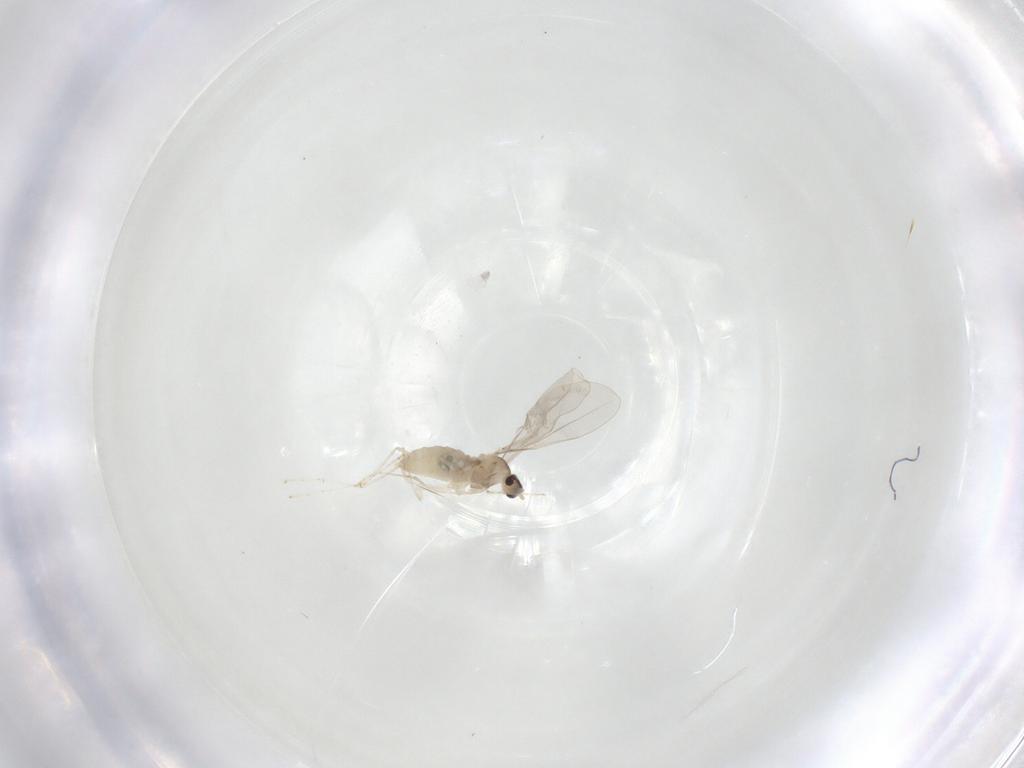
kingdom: Animalia
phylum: Arthropoda
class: Insecta
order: Diptera
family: Cecidomyiidae
